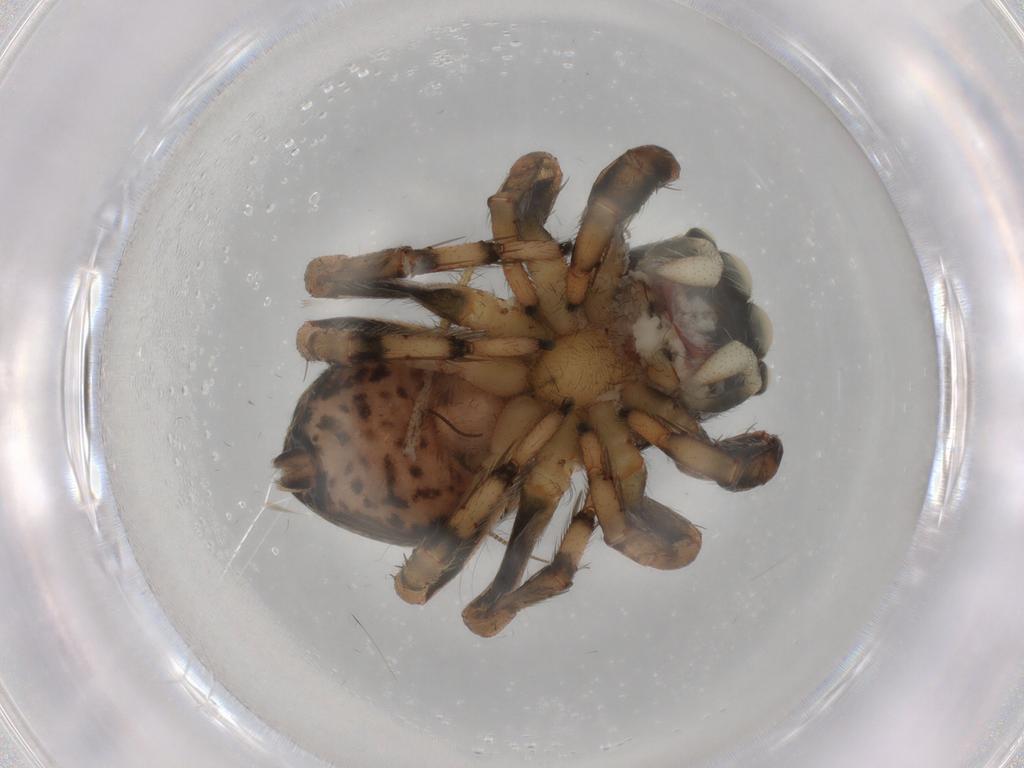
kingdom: Animalia
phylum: Arthropoda
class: Arachnida
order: Araneae
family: Salticidae
